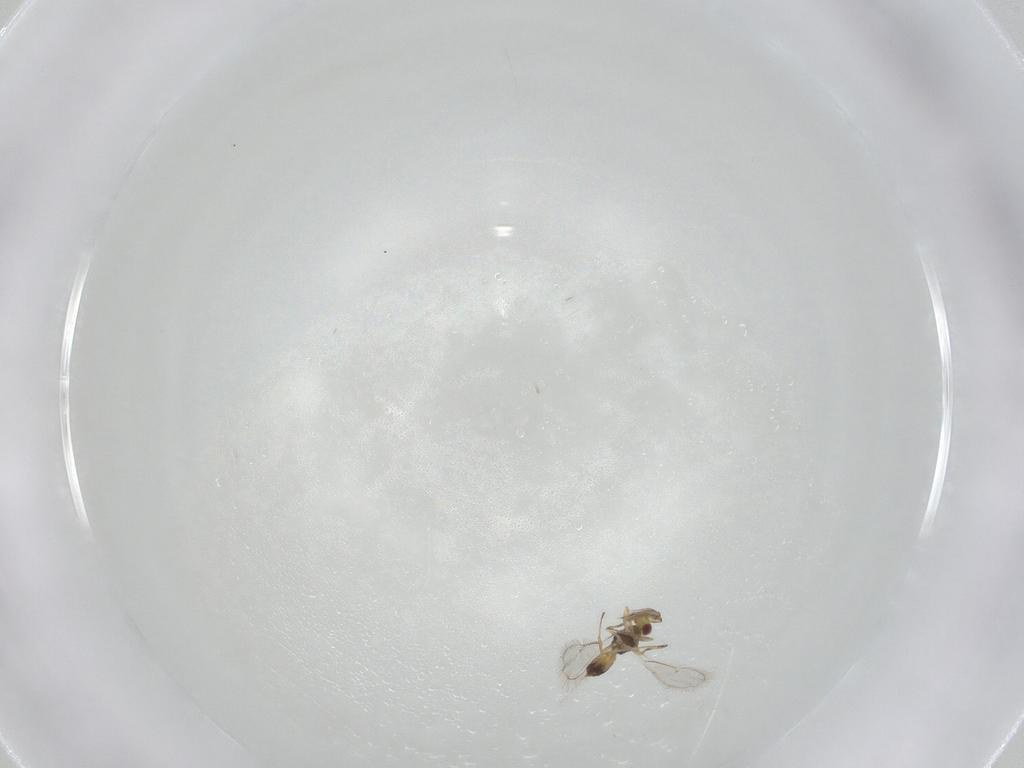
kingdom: Animalia
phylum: Arthropoda
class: Insecta
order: Hymenoptera
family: Eulophidae
